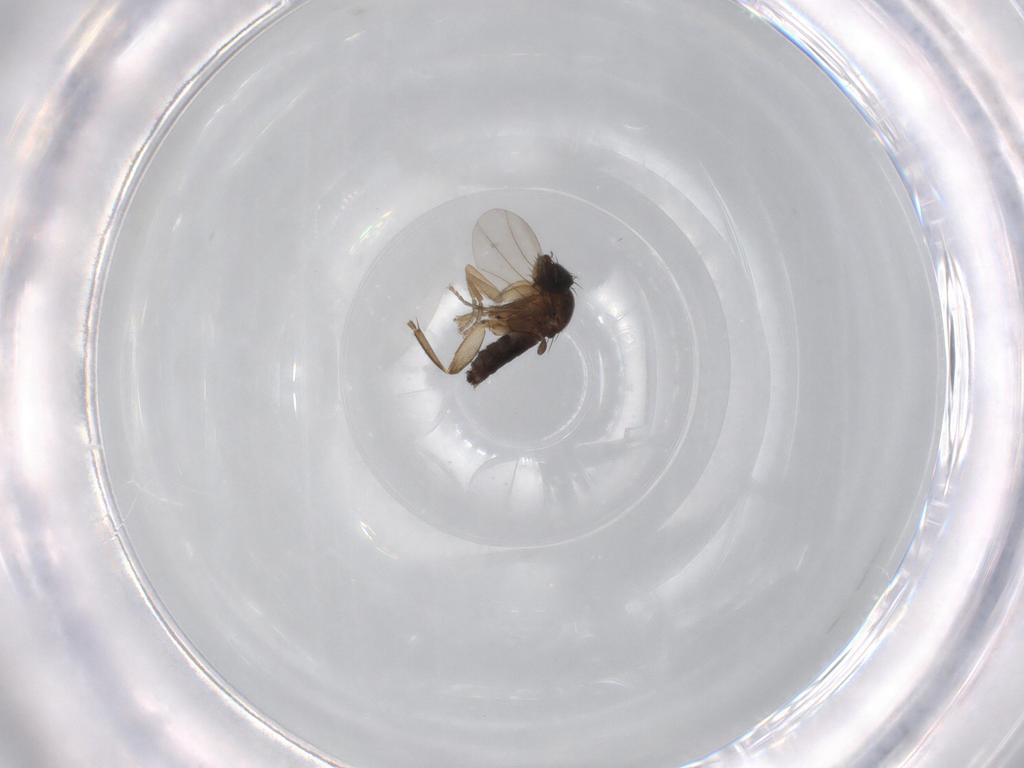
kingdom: Animalia
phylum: Arthropoda
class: Insecta
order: Diptera
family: Phoridae
